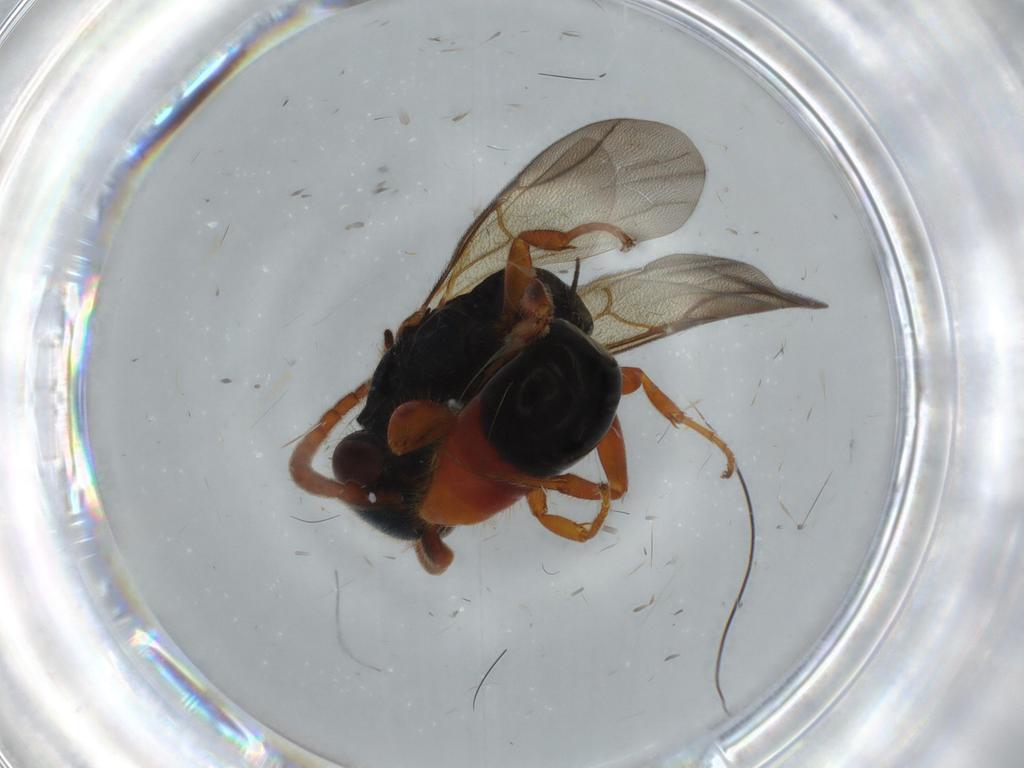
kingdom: Animalia
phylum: Arthropoda
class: Insecta
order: Hymenoptera
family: Bethylidae
